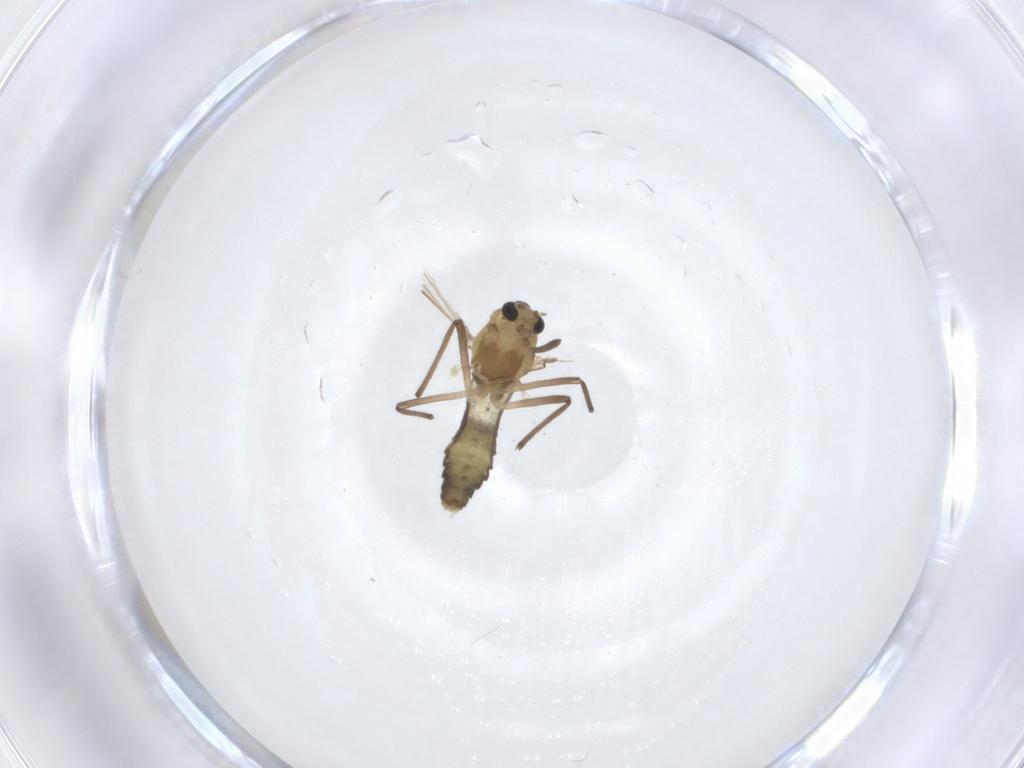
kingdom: Animalia
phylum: Arthropoda
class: Insecta
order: Diptera
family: Chironomidae
